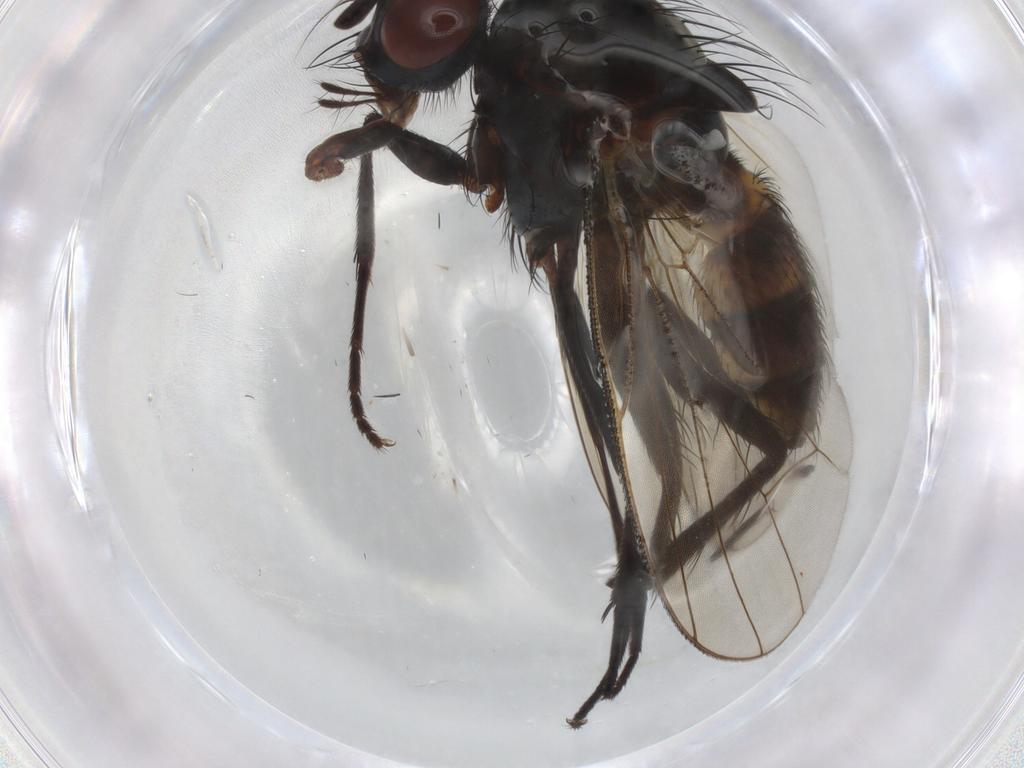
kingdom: Animalia
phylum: Arthropoda
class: Insecta
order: Diptera
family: Anthomyiidae
